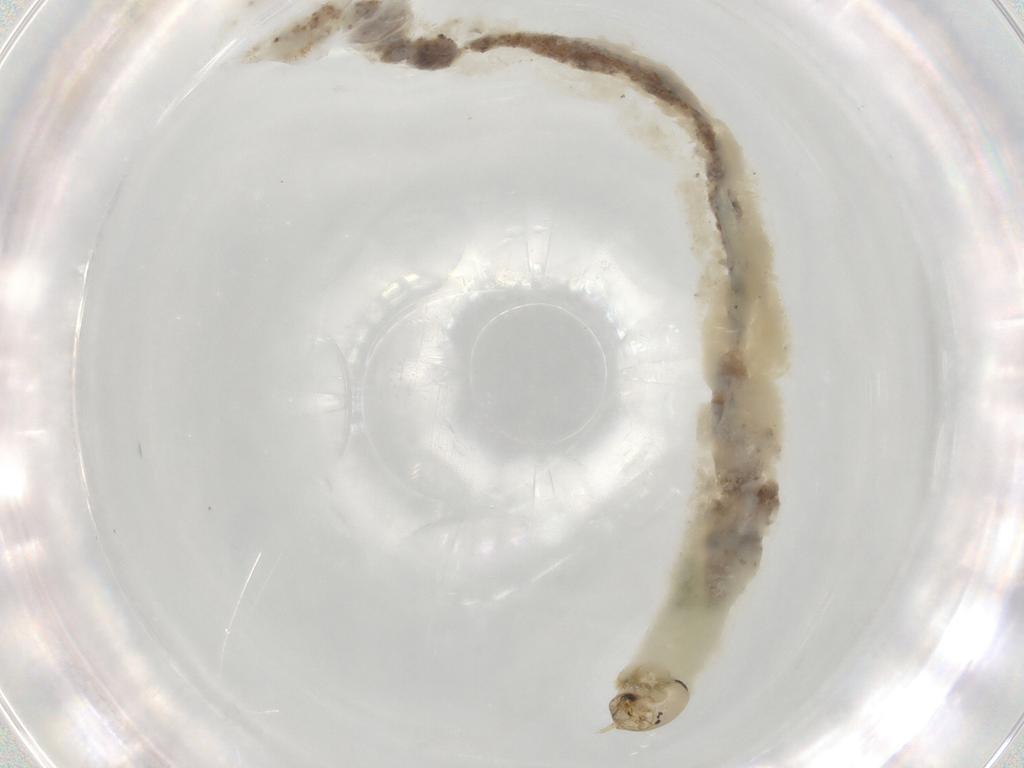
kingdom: Animalia
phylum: Arthropoda
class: Insecta
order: Diptera
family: Chironomidae
